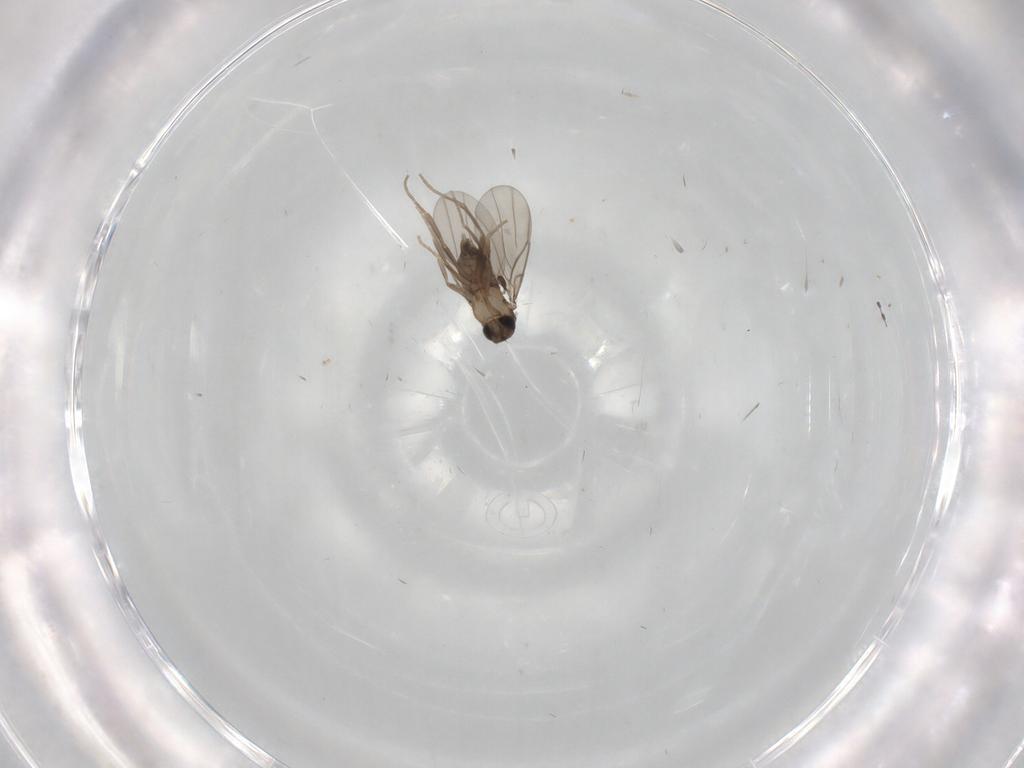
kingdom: Animalia
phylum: Arthropoda
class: Insecta
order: Diptera
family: Phoridae
